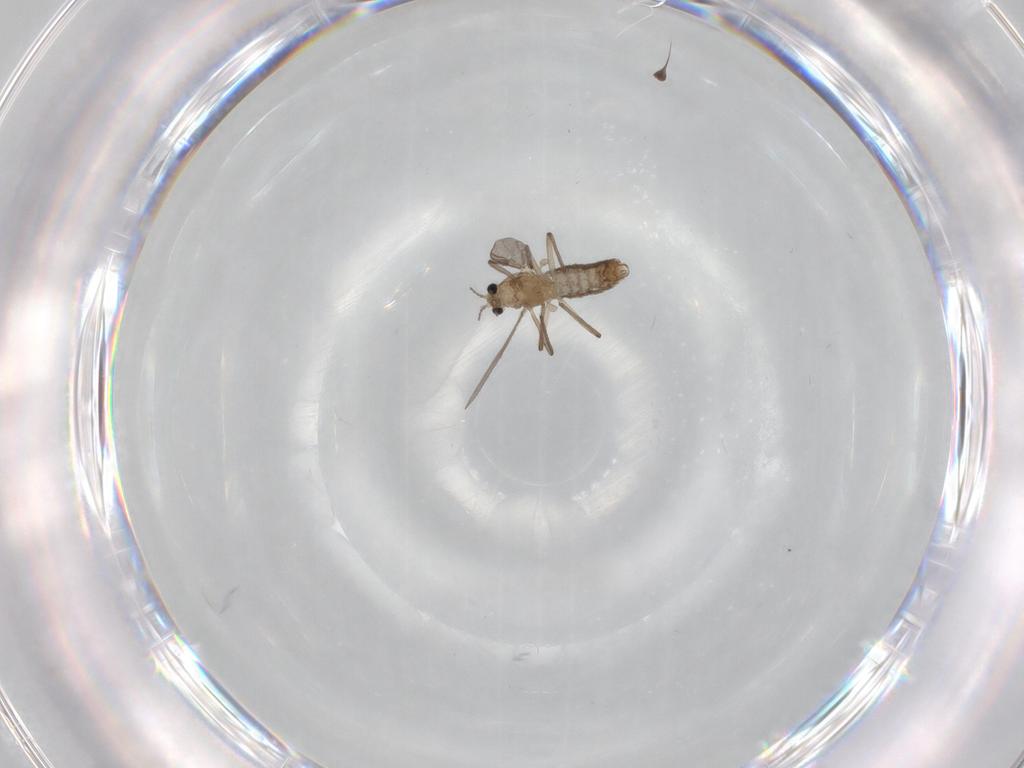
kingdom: Animalia
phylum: Arthropoda
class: Insecta
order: Diptera
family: Chironomidae
